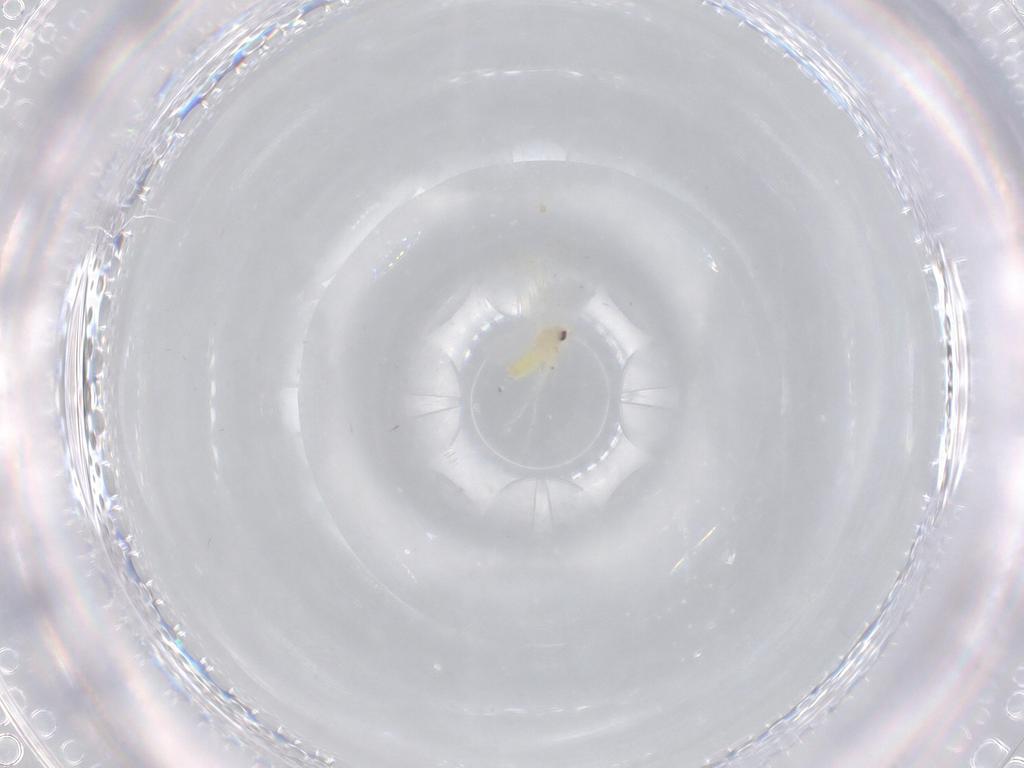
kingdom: Animalia
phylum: Arthropoda
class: Insecta
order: Hemiptera
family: Aleyrodidae
